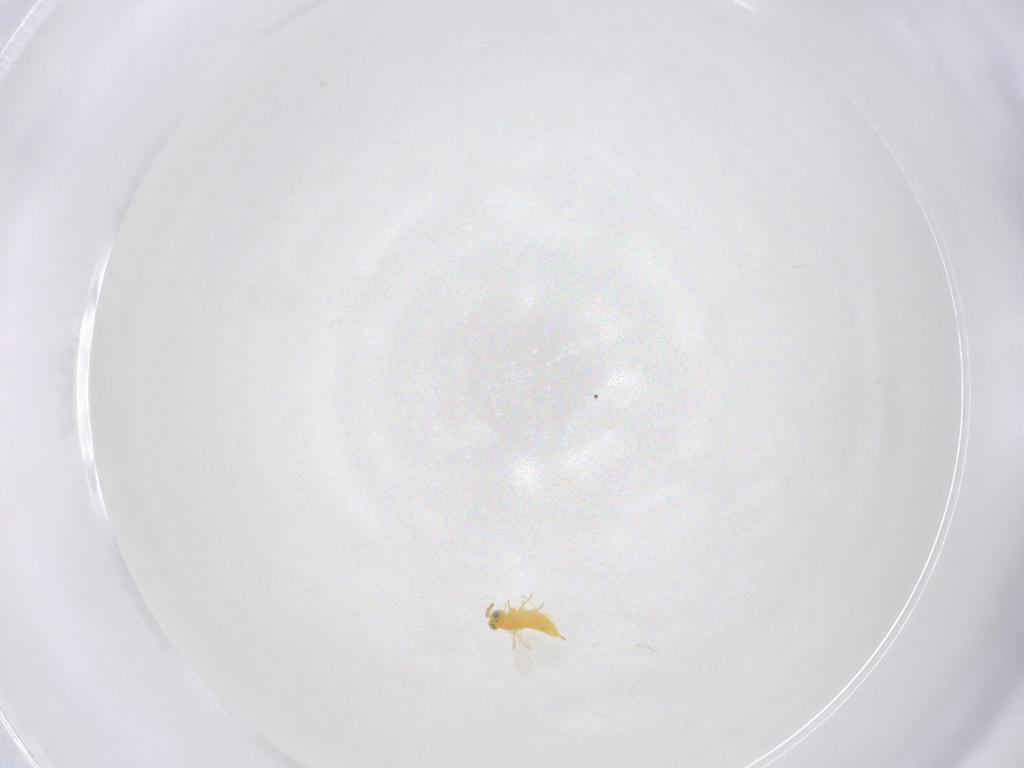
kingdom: Animalia
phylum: Arthropoda
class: Insecta
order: Hymenoptera
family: Aphelinidae
